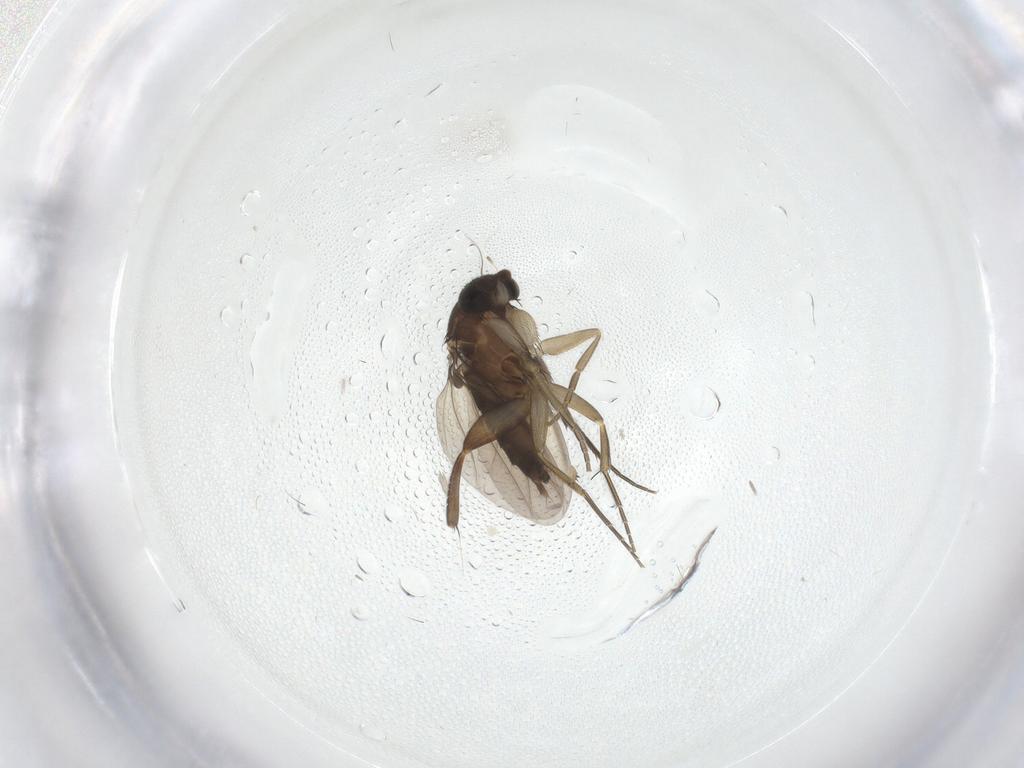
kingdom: Animalia
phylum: Arthropoda
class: Insecta
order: Diptera
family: Phoridae
